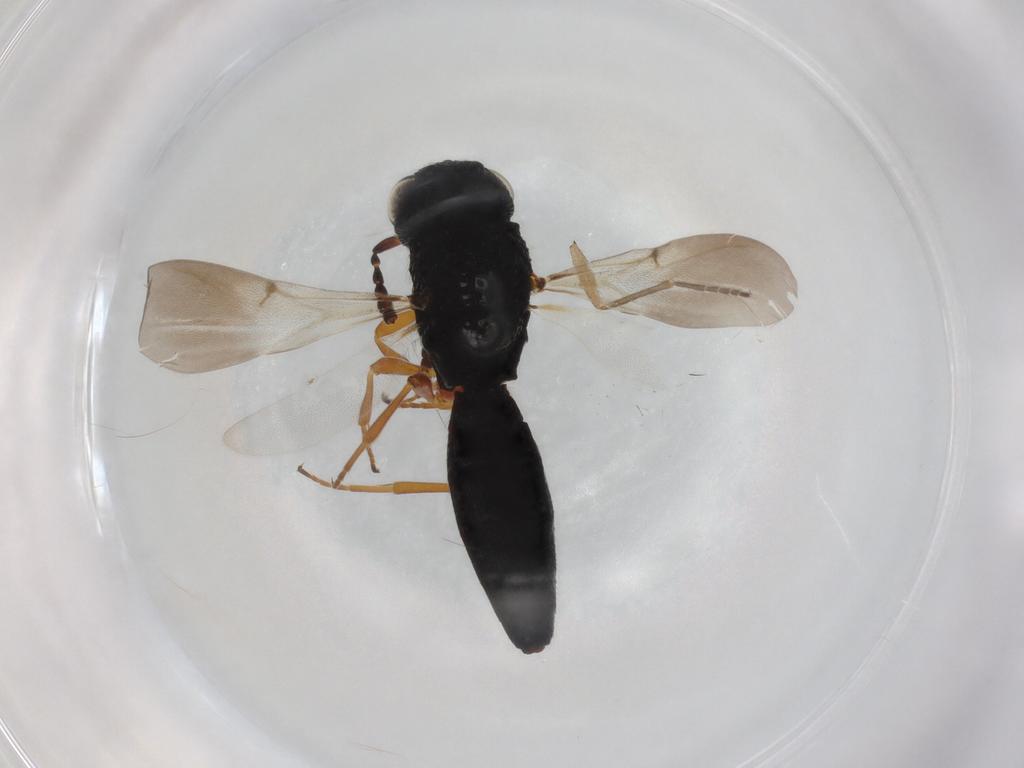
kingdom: Animalia
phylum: Arthropoda
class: Insecta
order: Hymenoptera
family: Scelionidae
